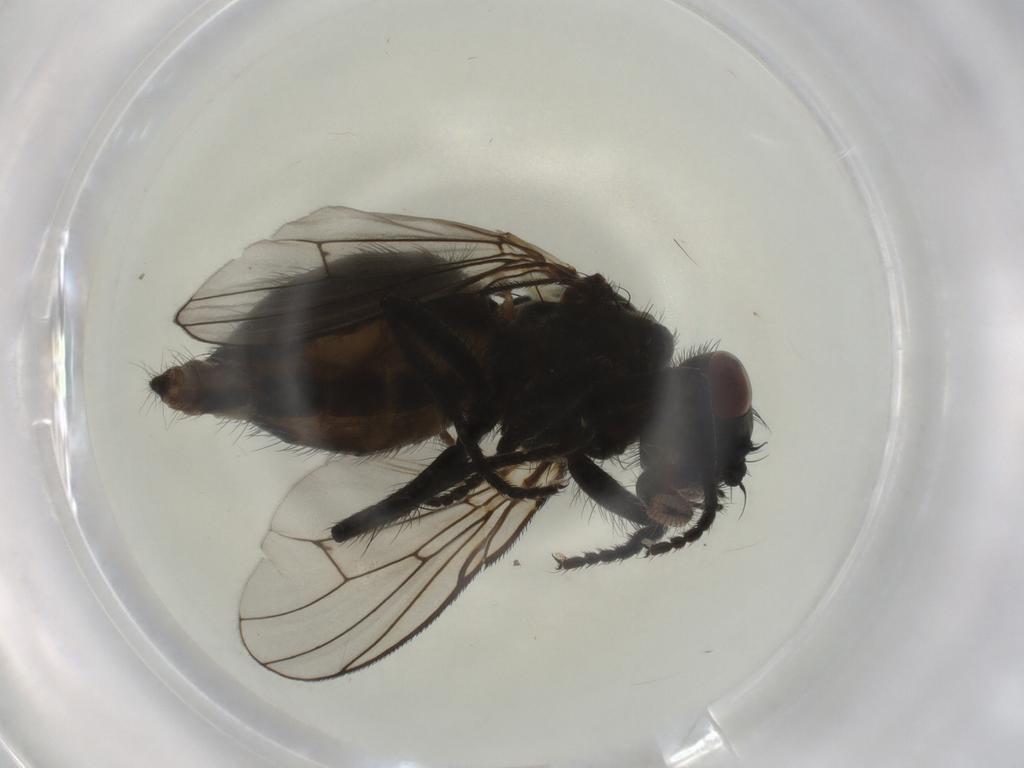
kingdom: Animalia
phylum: Arthropoda
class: Insecta
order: Diptera
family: Muscidae
